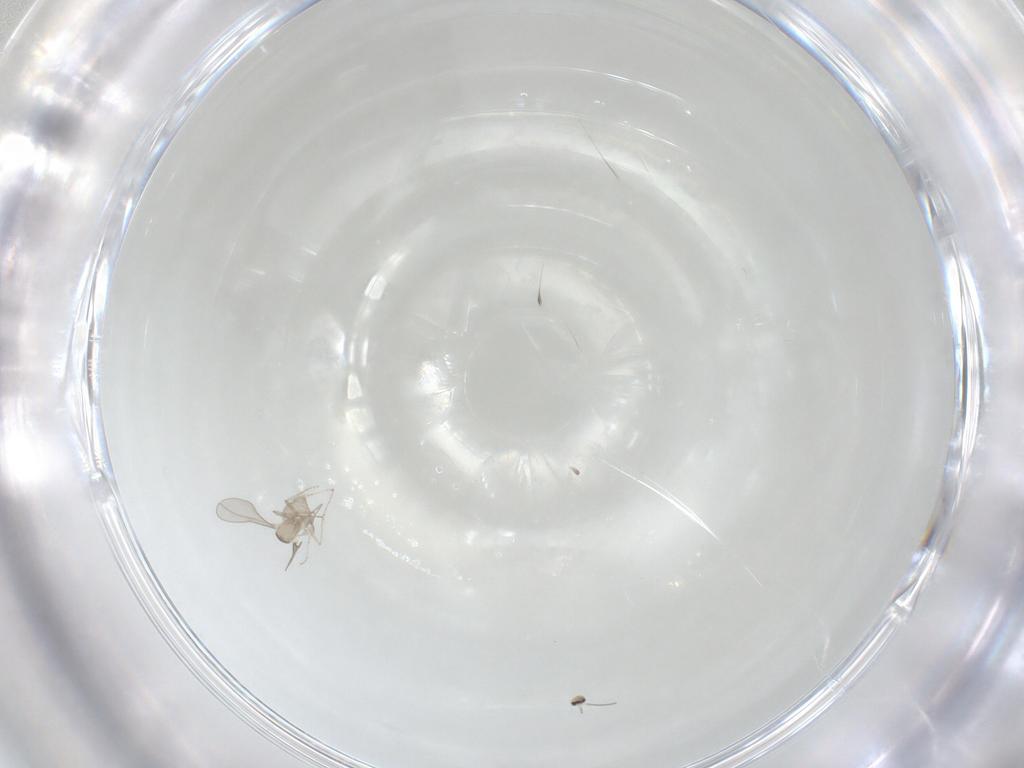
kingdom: Animalia
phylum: Arthropoda
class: Insecta
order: Diptera
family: Cecidomyiidae
